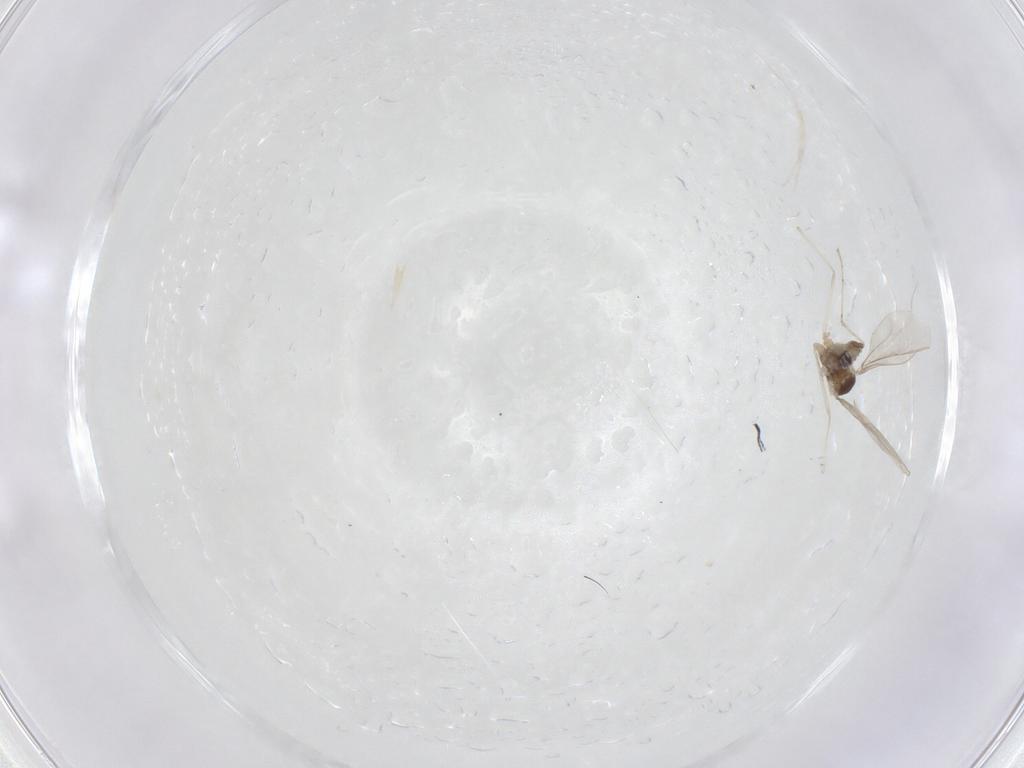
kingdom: Animalia
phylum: Arthropoda
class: Insecta
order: Diptera
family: Cecidomyiidae
